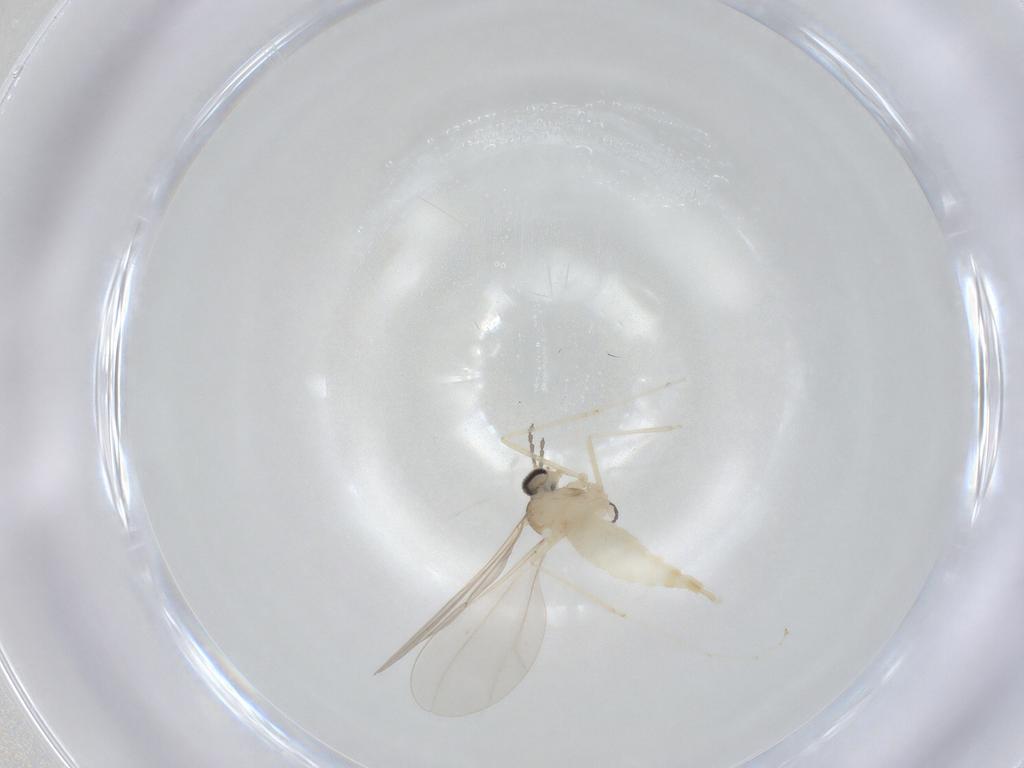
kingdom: Animalia
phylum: Arthropoda
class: Insecta
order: Diptera
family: Sciaridae
